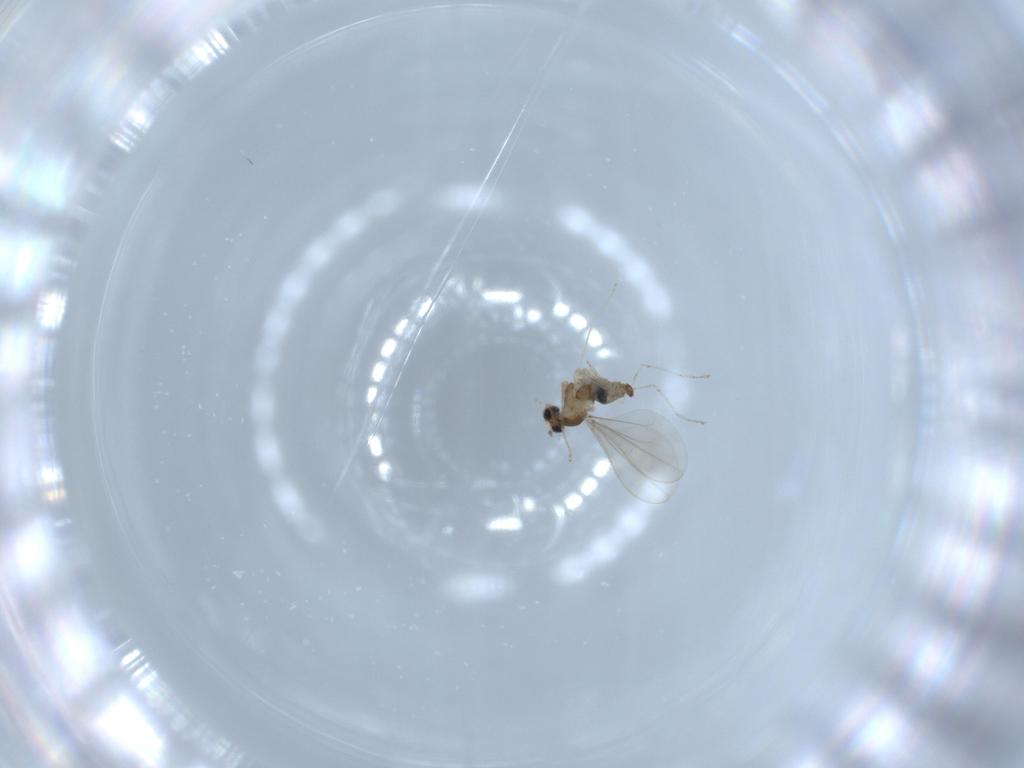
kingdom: Animalia
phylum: Arthropoda
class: Insecta
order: Diptera
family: Cecidomyiidae
